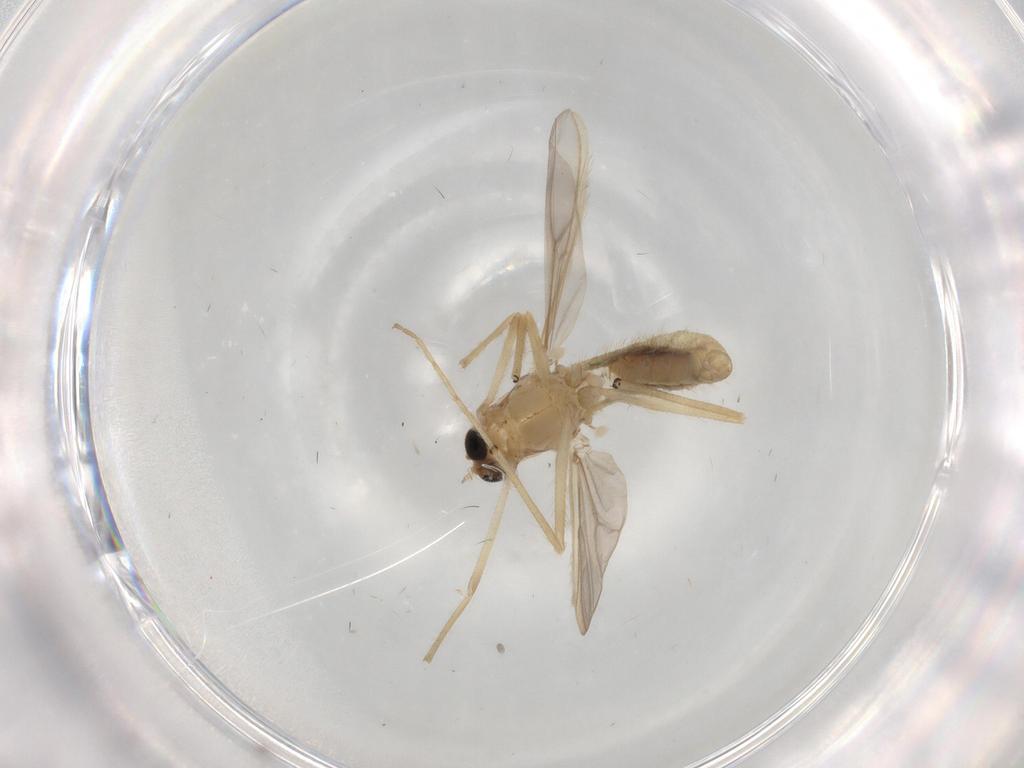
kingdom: Animalia
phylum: Arthropoda
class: Insecta
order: Diptera
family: Chironomidae
